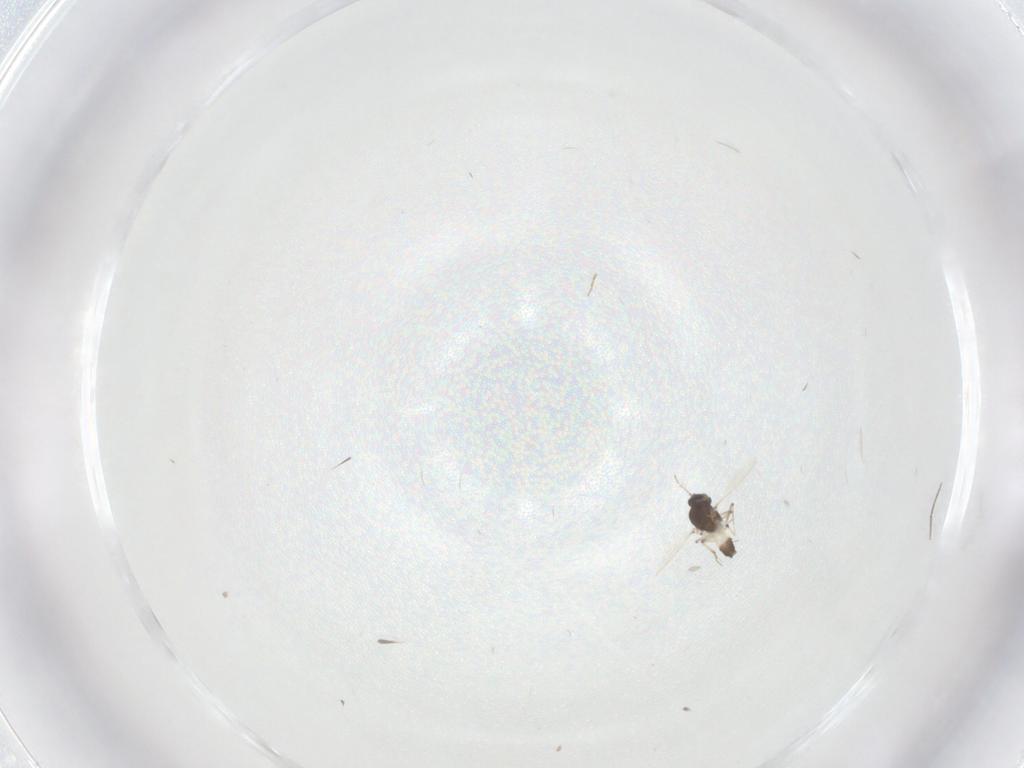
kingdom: Animalia
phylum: Arthropoda
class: Insecta
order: Diptera
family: Ceratopogonidae
